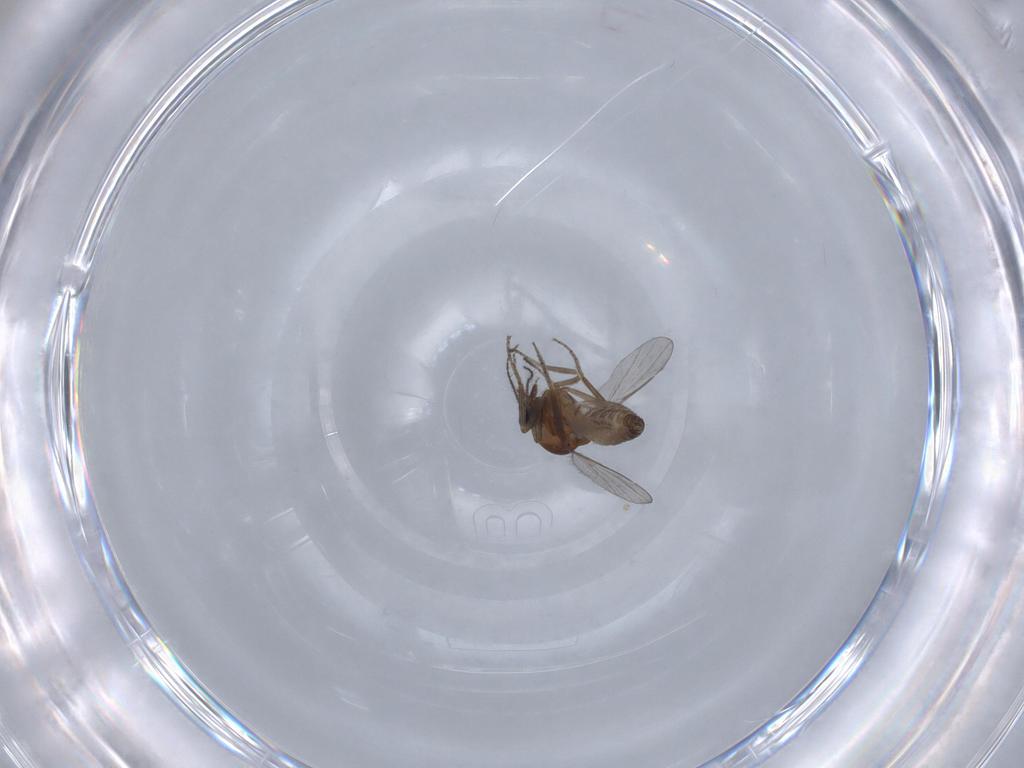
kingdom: Animalia
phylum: Arthropoda
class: Insecta
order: Diptera
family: Ceratopogonidae
